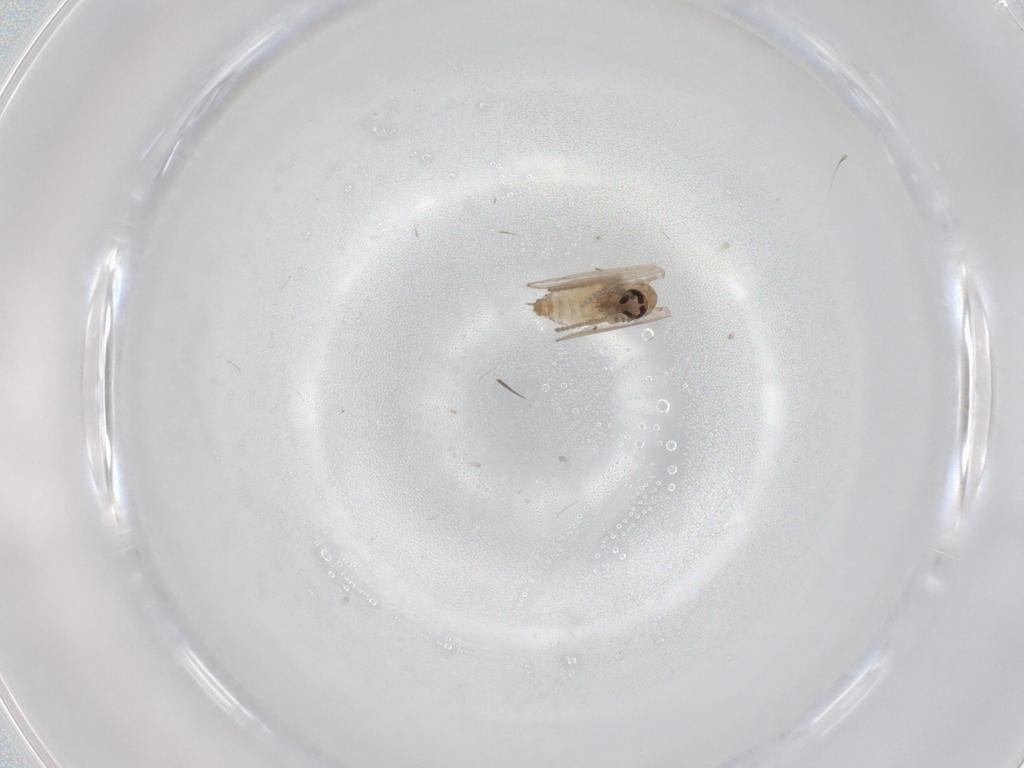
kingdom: Animalia
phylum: Arthropoda
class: Insecta
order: Diptera
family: Psychodidae
